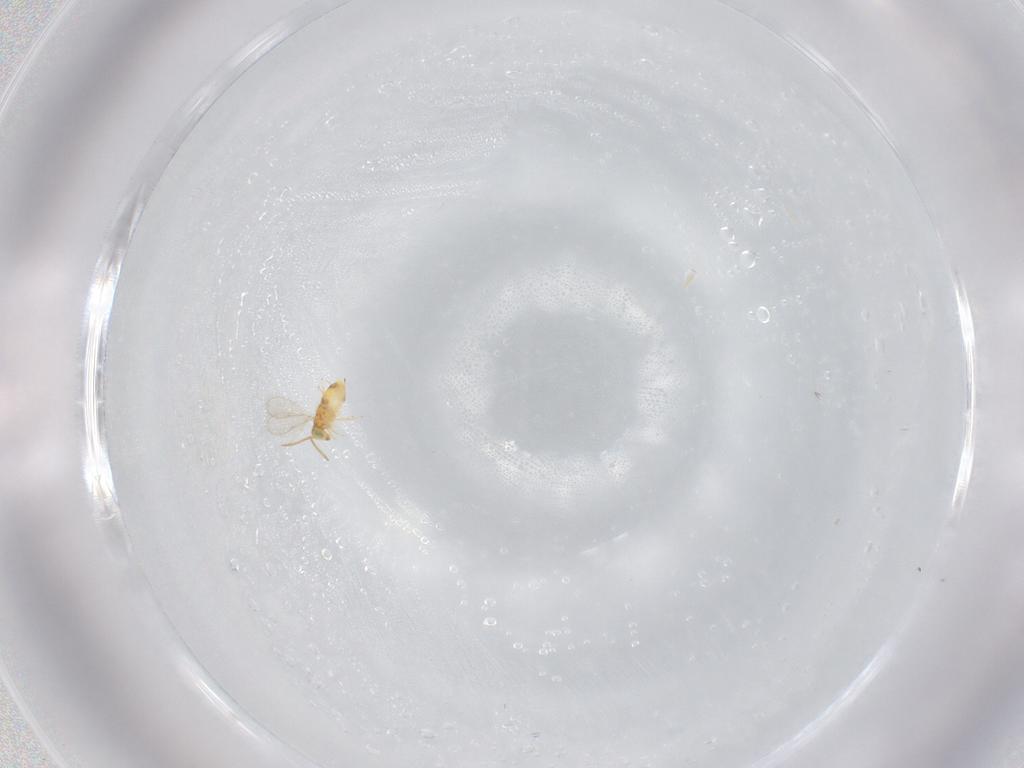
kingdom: Animalia
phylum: Arthropoda
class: Insecta
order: Hymenoptera
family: Aphelinidae
